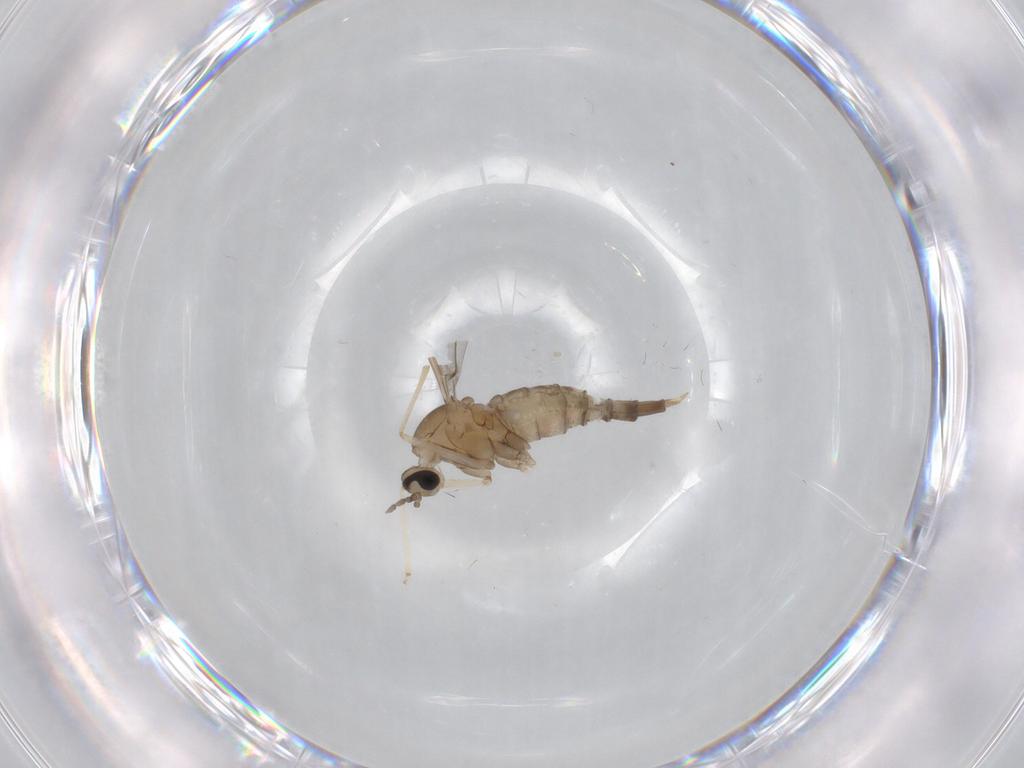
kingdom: Animalia
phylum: Arthropoda
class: Insecta
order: Diptera
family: Cecidomyiidae
